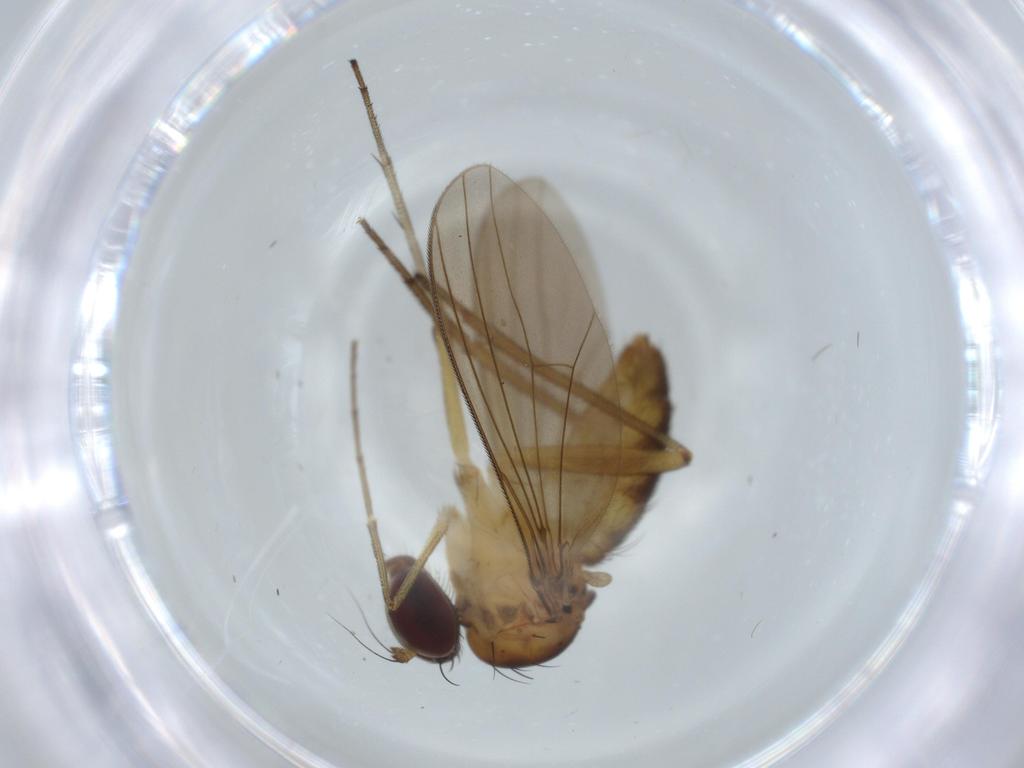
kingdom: Animalia
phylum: Arthropoda
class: Insecta
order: Diptera
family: Dolichopodidae
